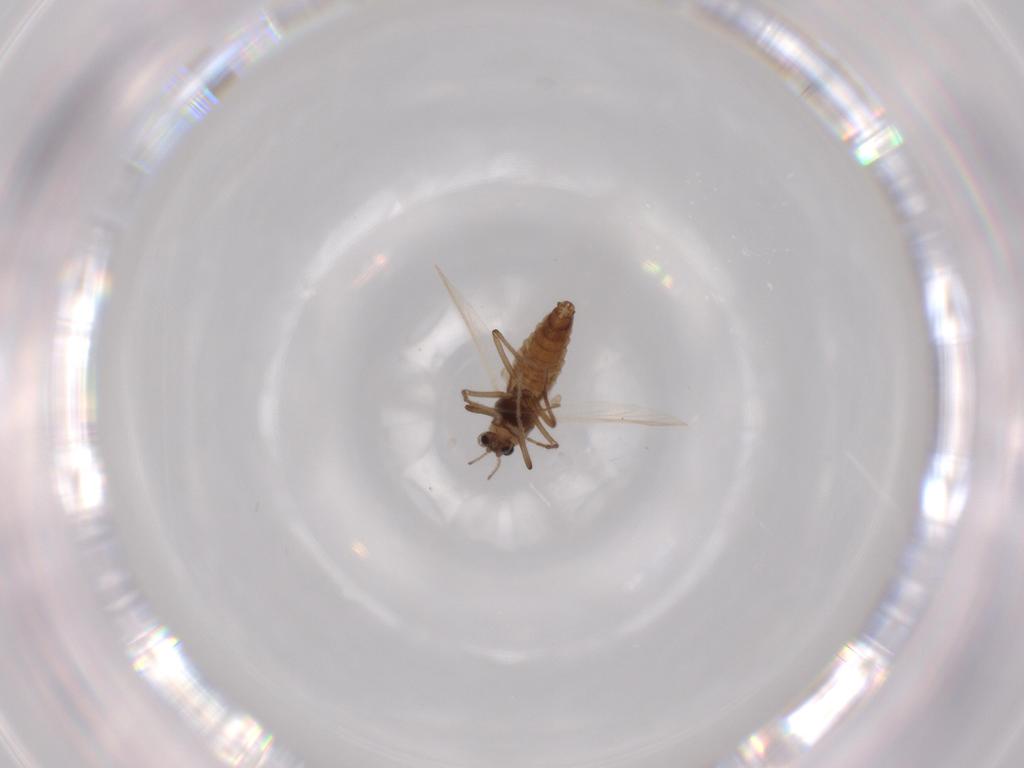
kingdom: Animalia
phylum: Arthropoda
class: Insecta
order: Diptera
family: Chironomidae
